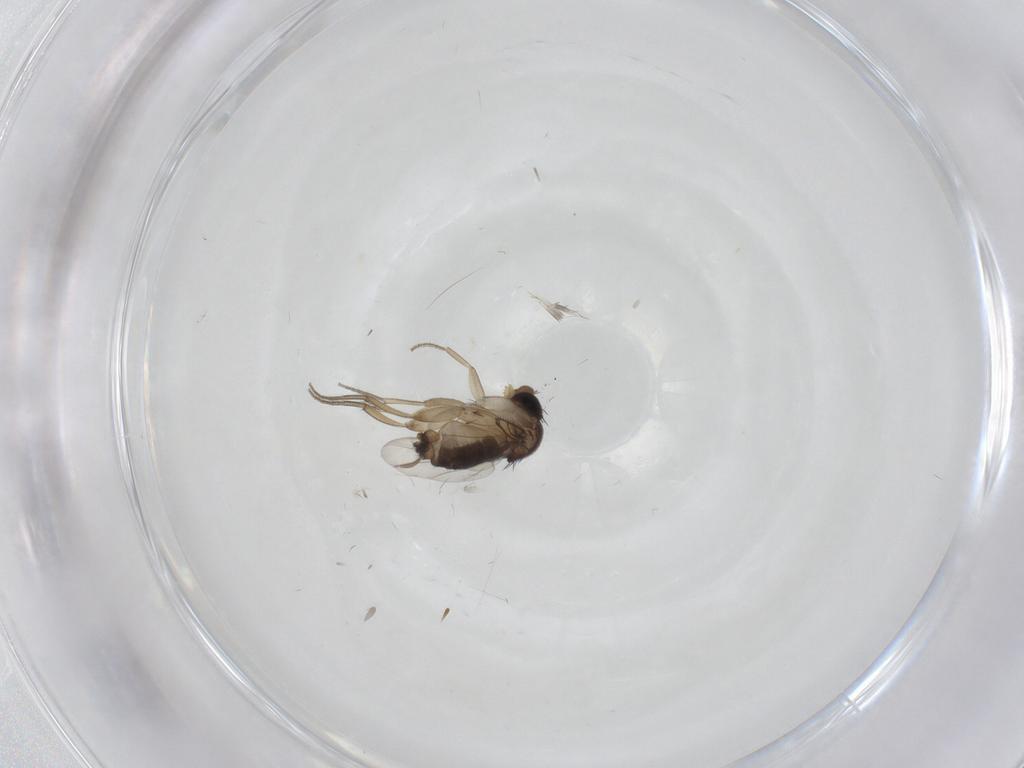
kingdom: Animalia
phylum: Arthropoda
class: Insecta
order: Diptera
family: Ceratopogonidae
